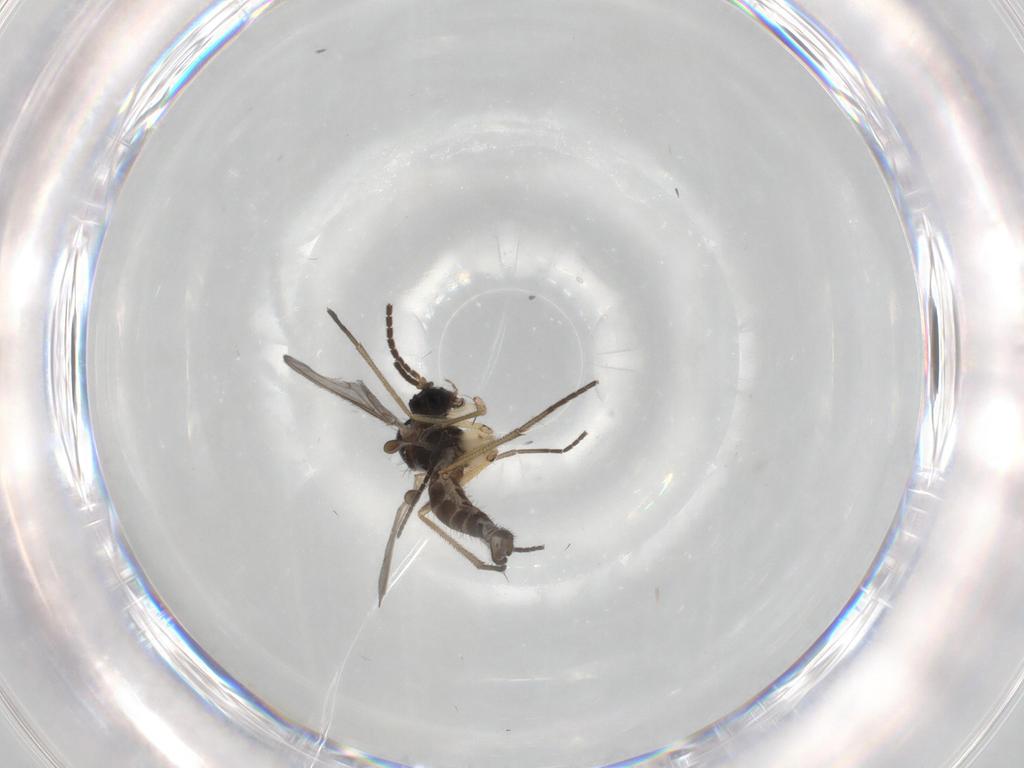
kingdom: Animalia
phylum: Arthropoda
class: Insecta
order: Diptera
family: Sciaridae
